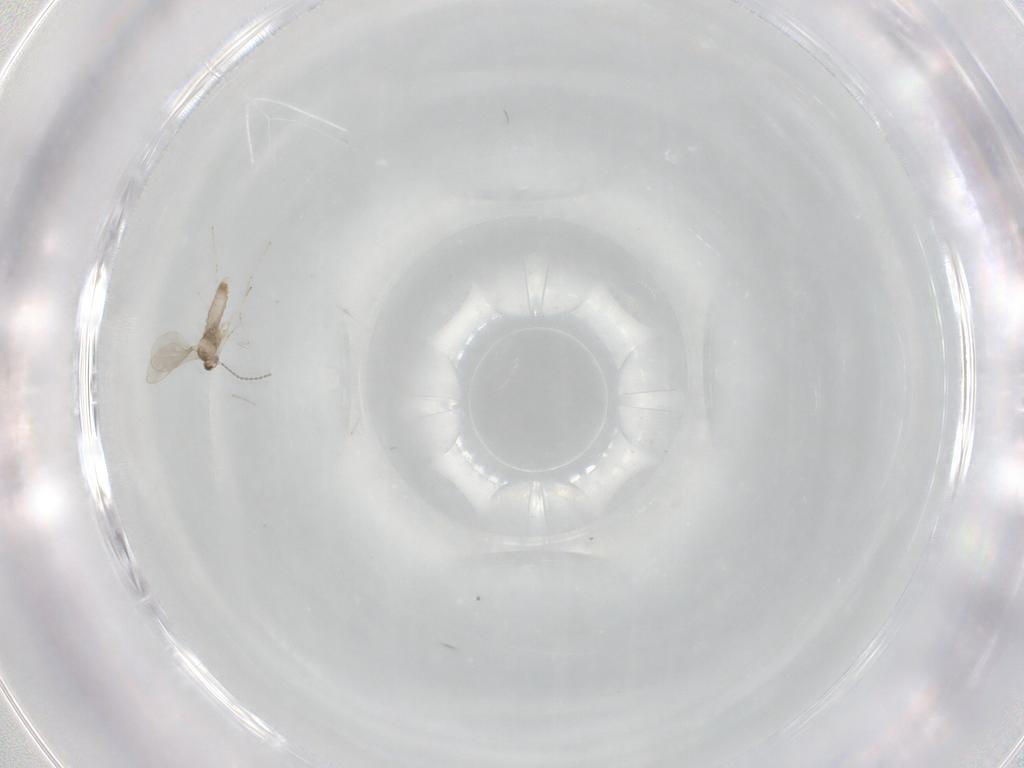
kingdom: Animalia
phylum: Arthropoda
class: Insecta
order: Diptera
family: Cecidomyiidae
